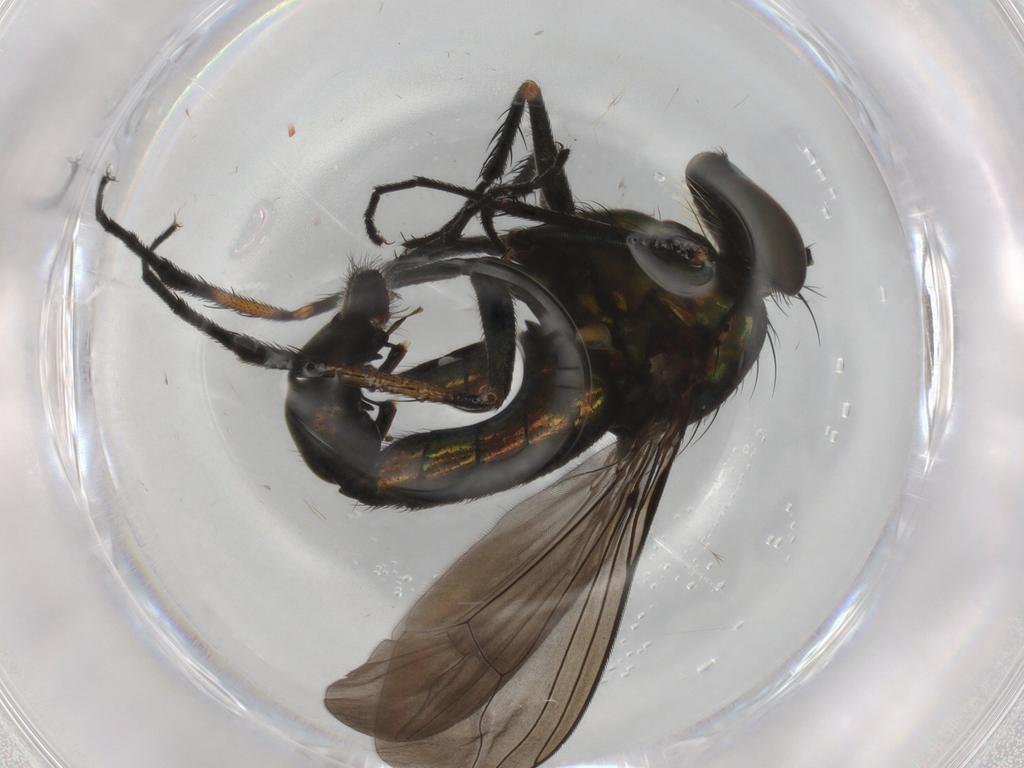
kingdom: Animalia
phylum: Arthropoda
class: Insecta
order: Diptera
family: Dolichopodidae
